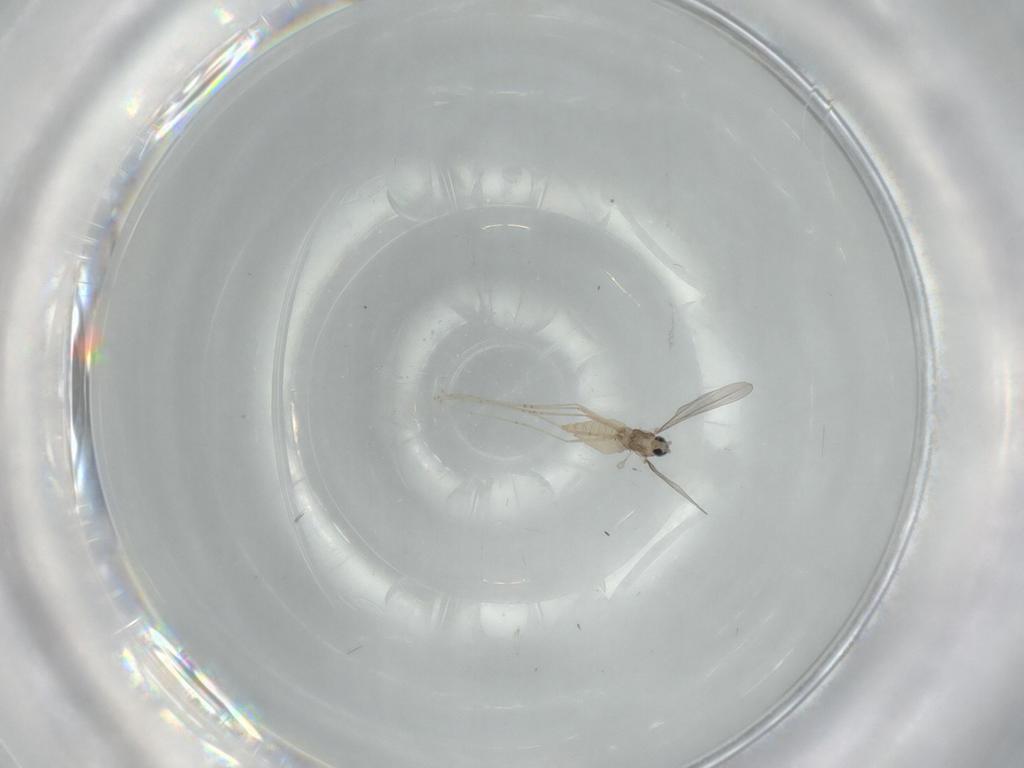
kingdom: Animalia
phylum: Arthropoda
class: Insecta
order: Diptera
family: Cecidomyiidae
